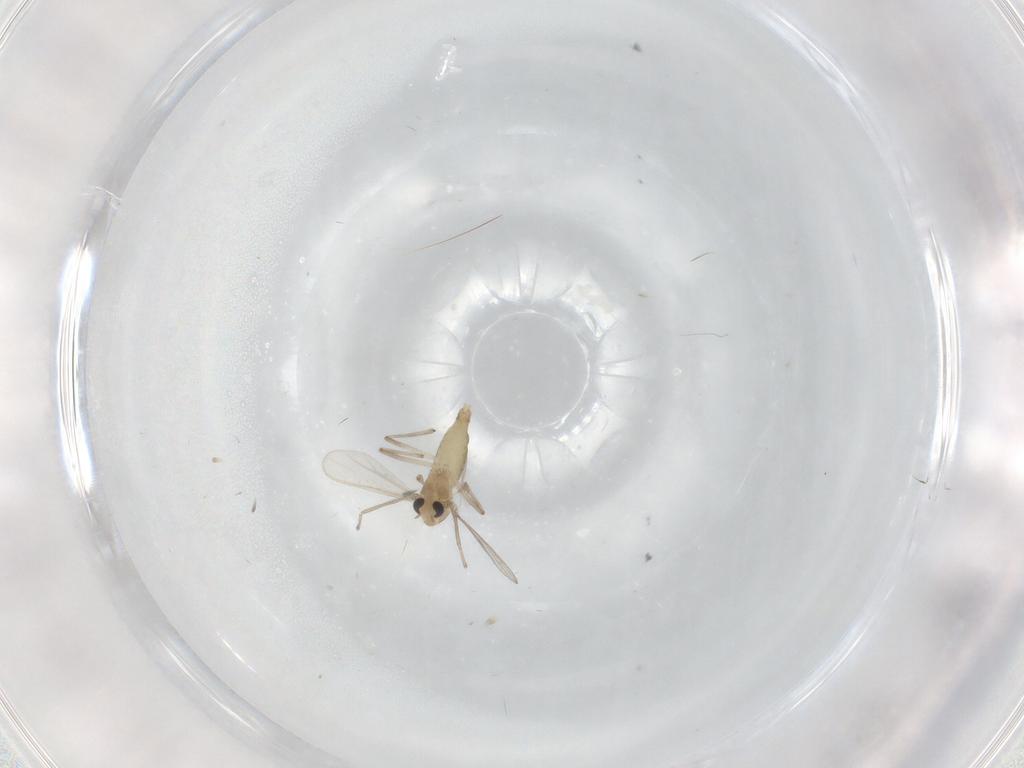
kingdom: Animalia
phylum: Arthropoda
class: Insecta
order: Diptera
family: Chironomidae
